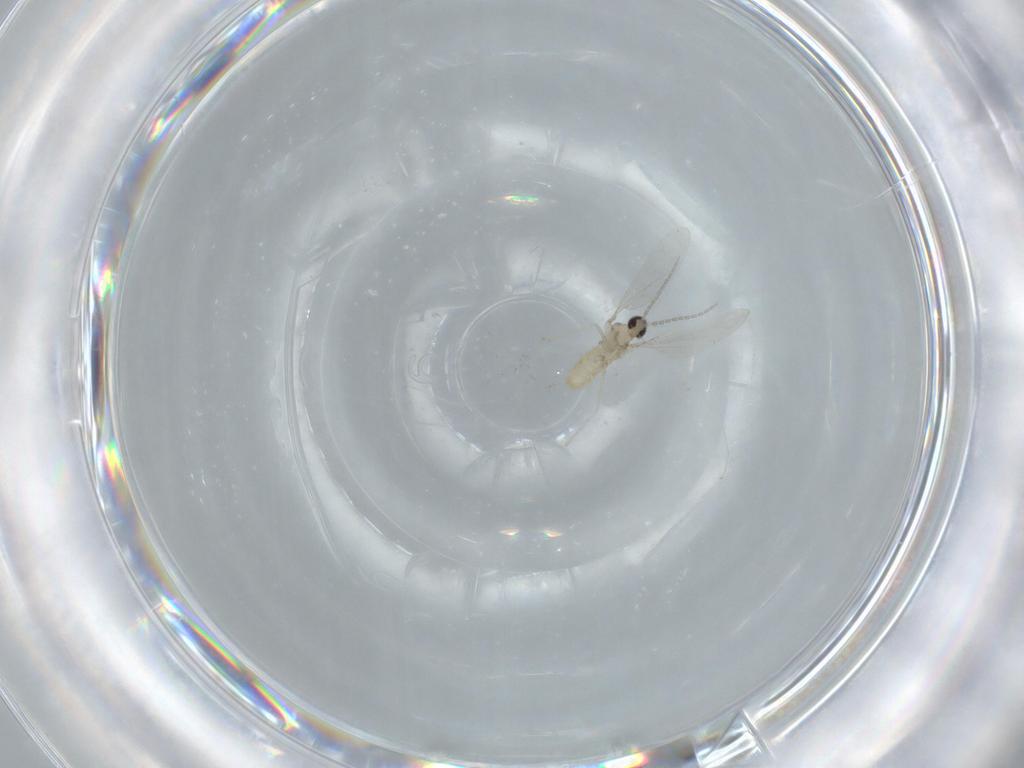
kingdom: Animalia
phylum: Arthropoda
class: Insecta
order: Diptera
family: Cecidomyiidae
